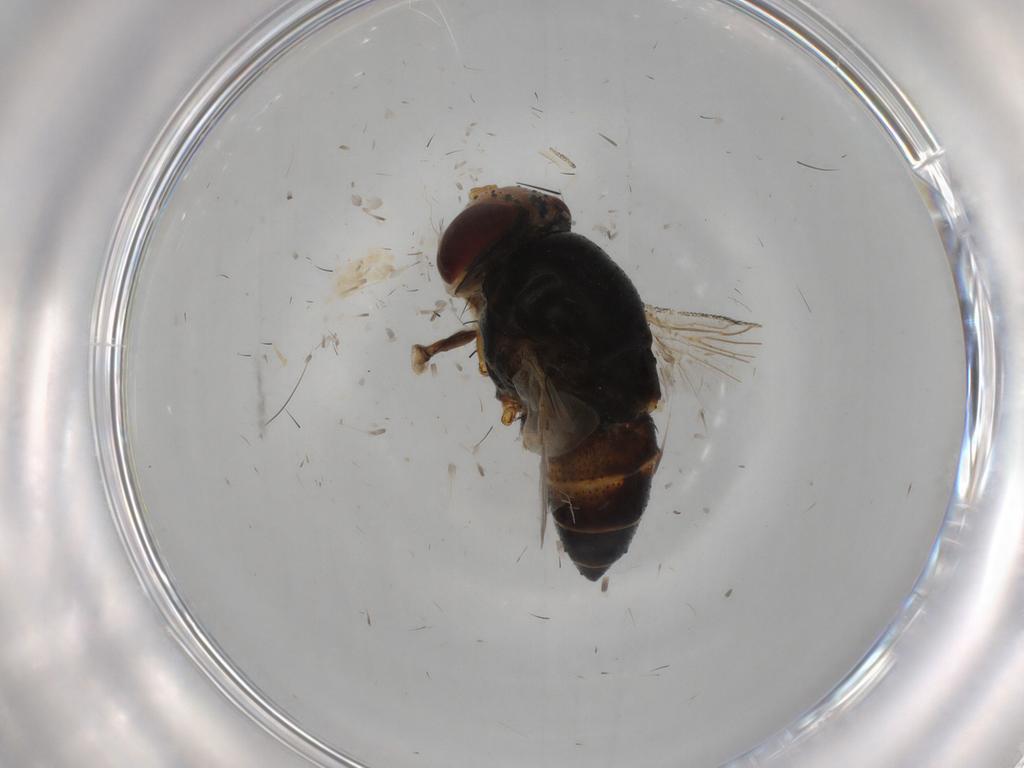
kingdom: Animalia
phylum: Arthropoda
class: Insecta
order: Diptera
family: Glossinidae
